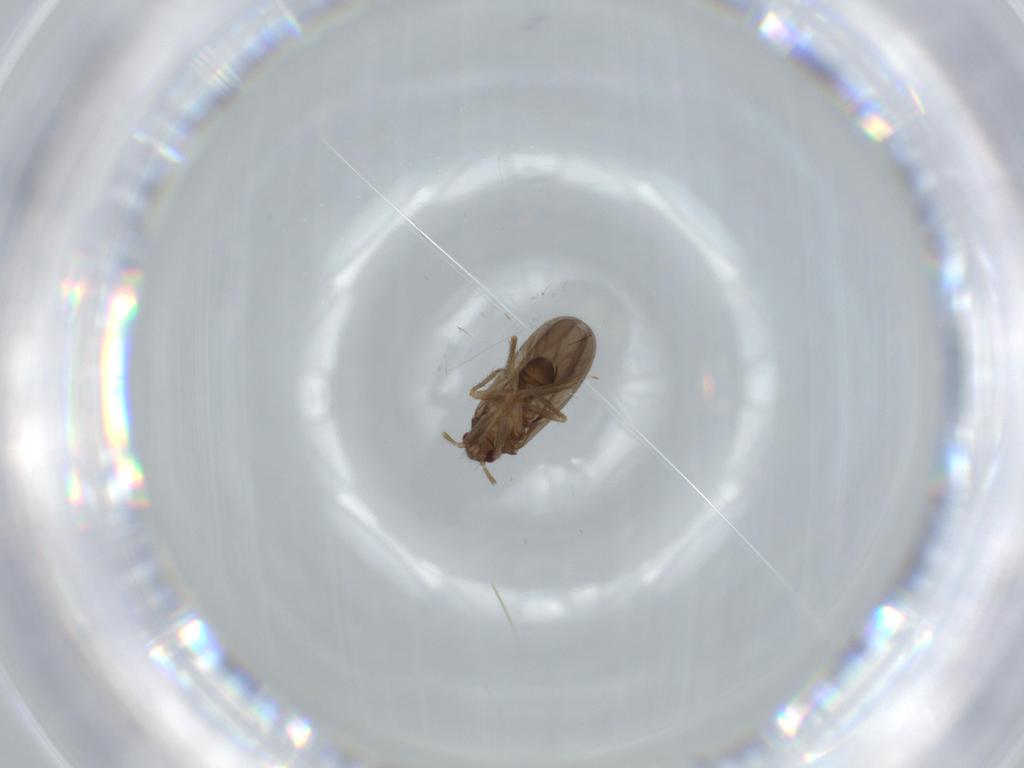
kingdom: Animalia
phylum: Arthropoda
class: Insecta
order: Hemiptera
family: Ceratocombidae
